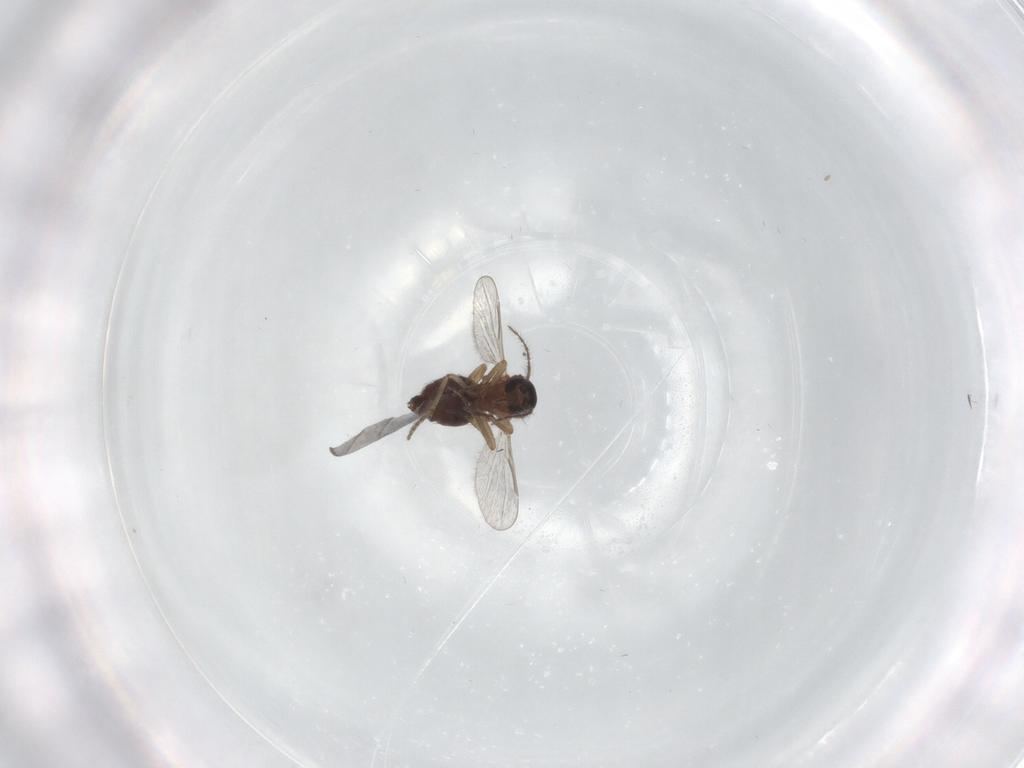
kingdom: Animalia
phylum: Arthropoda
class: Insecta
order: Diptera
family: Ceratopogonidae
